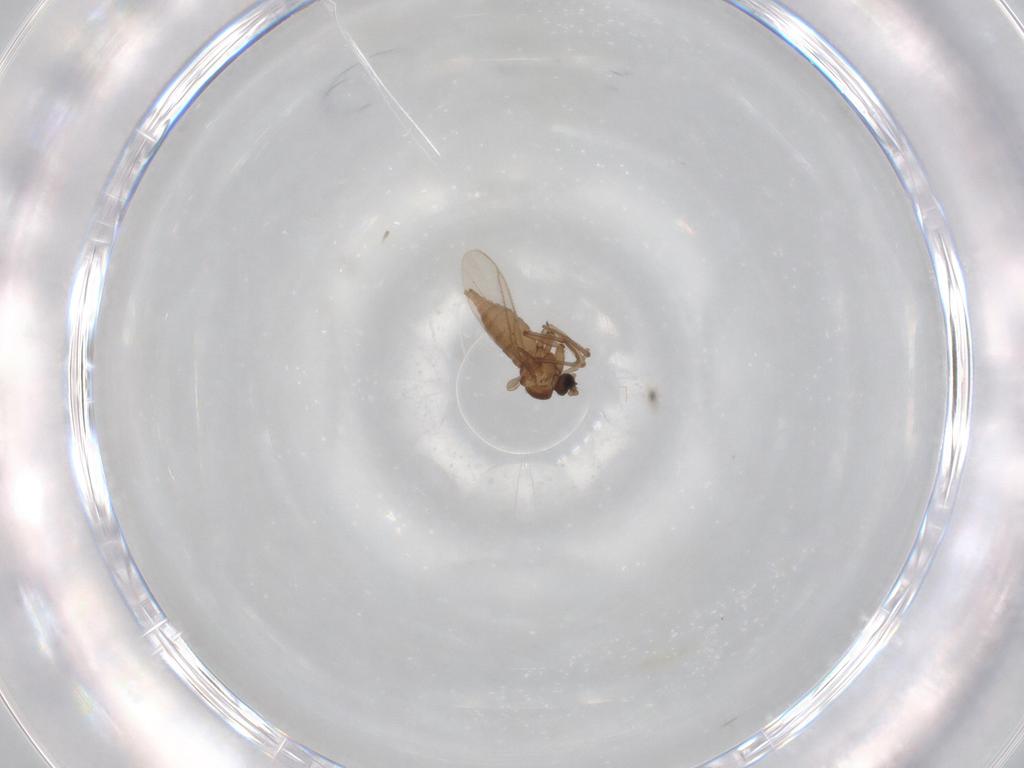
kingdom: Animalia
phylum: Arthropoda
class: Insecta
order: Diptera
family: Sciaridae
